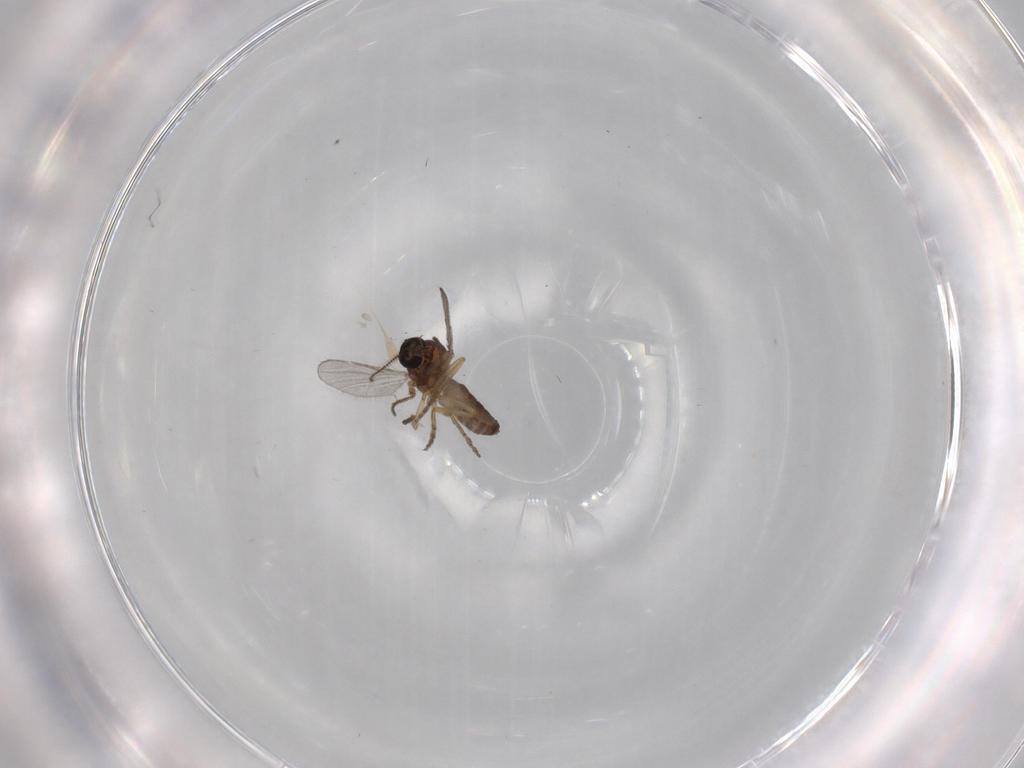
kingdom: Animalia
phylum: Arthropoda
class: Insecta
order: Diptera
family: Ceratopogonidae
